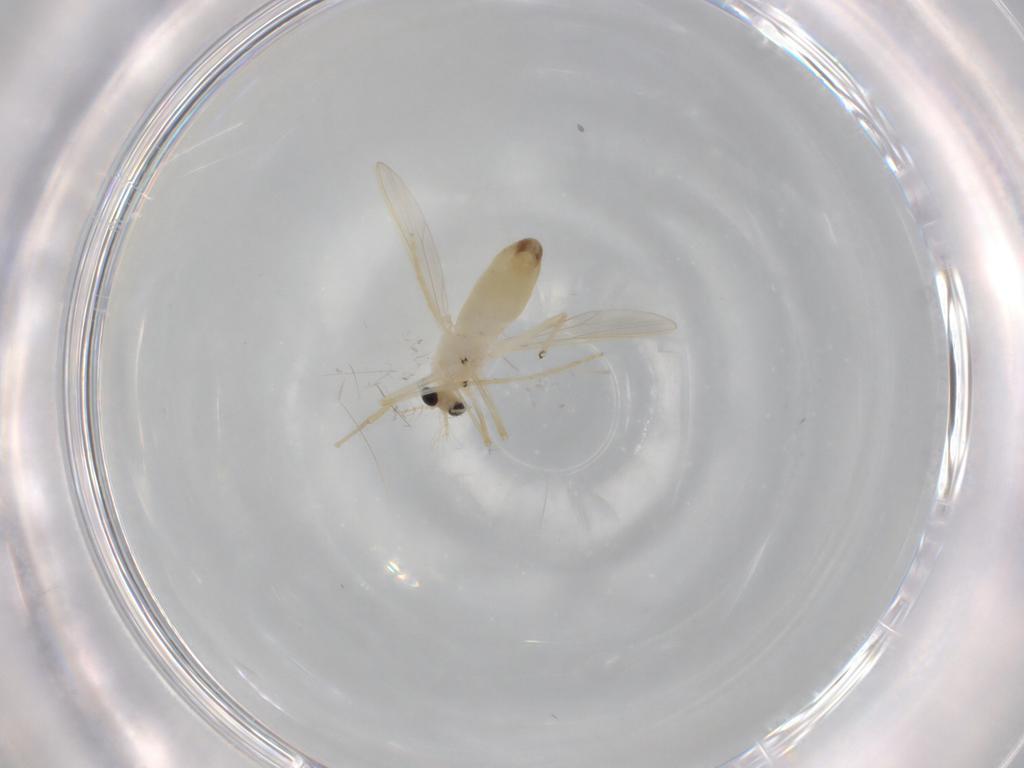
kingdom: Animalia
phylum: Arthropoda
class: Insecta
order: Diptera
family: Chironomidae
